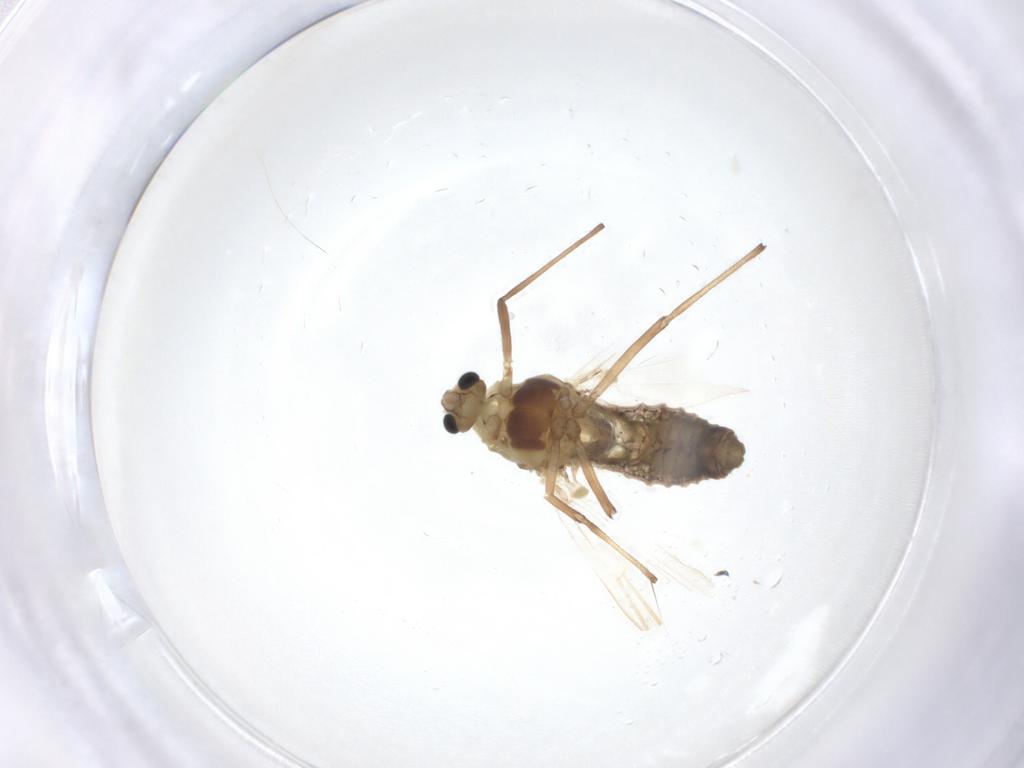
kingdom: Animalia
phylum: Arthropoda
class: Insecta
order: Diptera
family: Chironomidae
